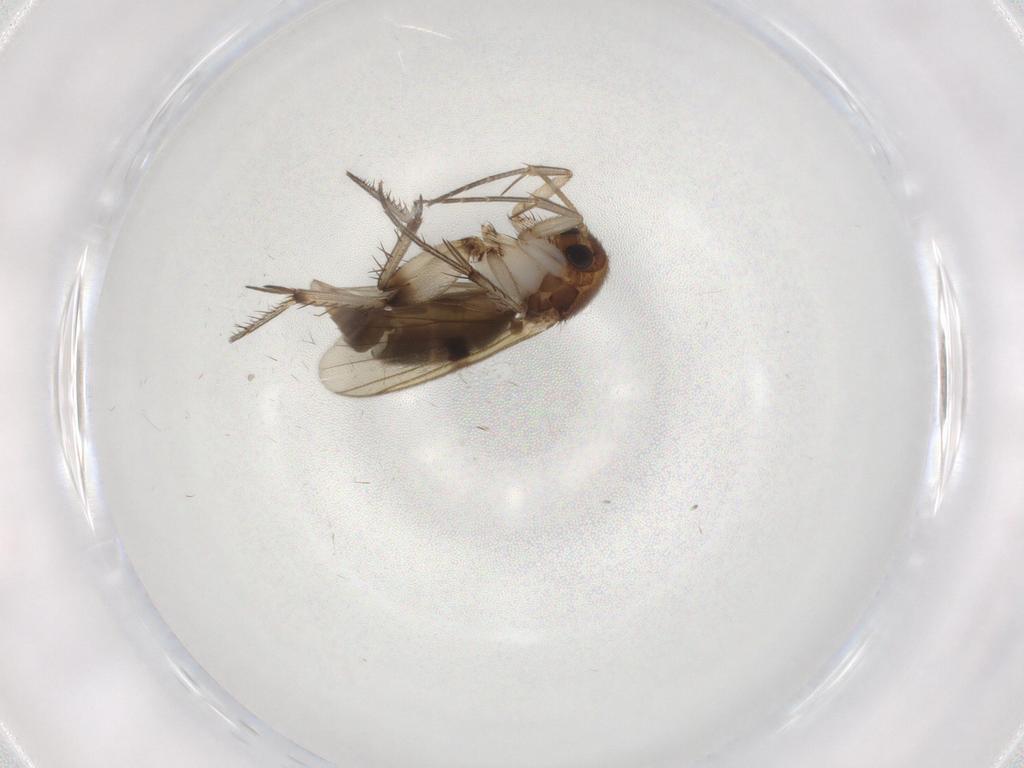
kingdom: Animalia
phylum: Arthropoda
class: Insecta
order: Diptera
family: Mycetophilidae
